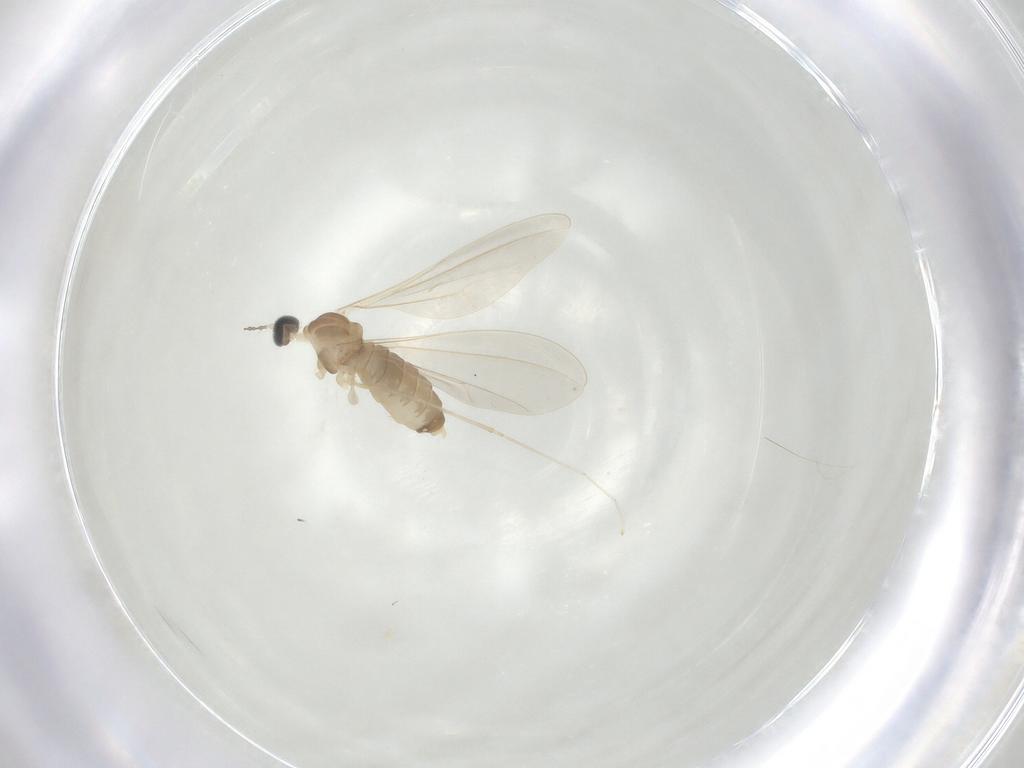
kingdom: Animalia
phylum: Arthropoda
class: Insecta
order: Diptera
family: Cecidomyiidae
